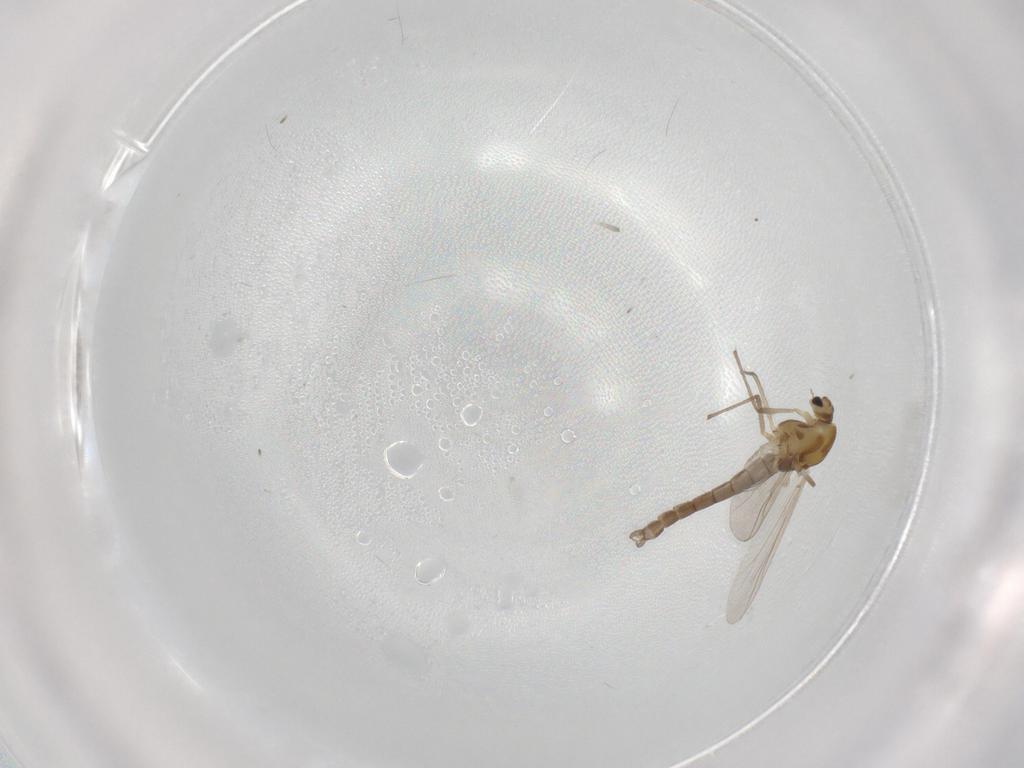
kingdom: Animalia
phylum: Arthropoda
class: Insecta
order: Diptera
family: Chironomidae
